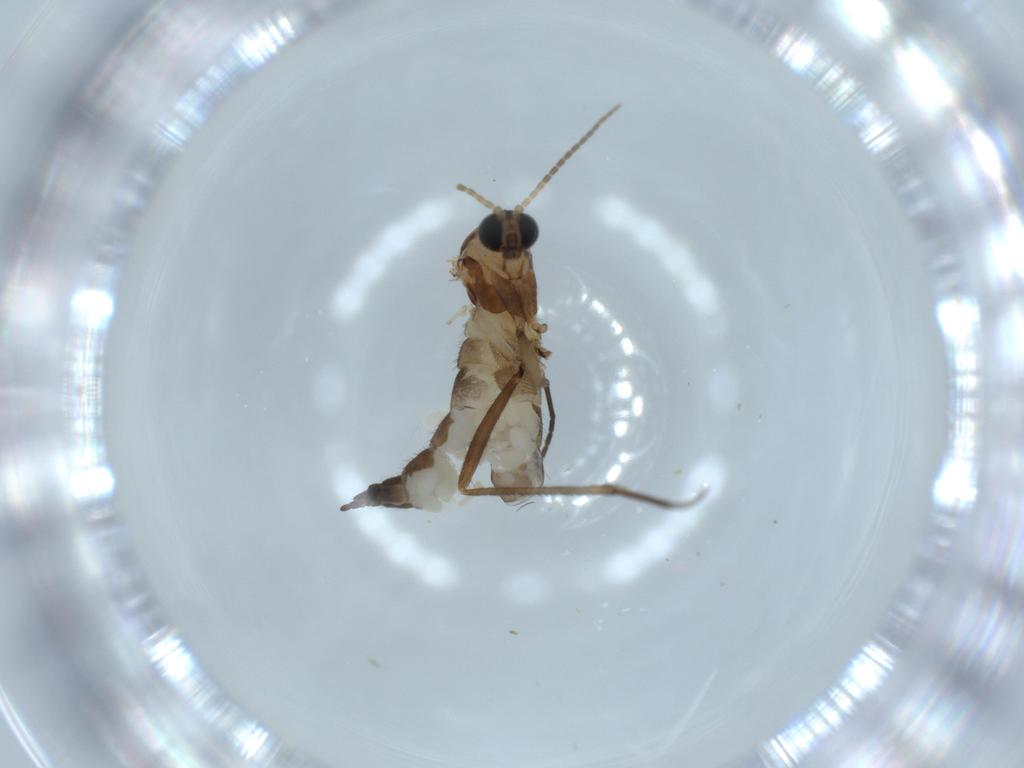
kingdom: Animalia
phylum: Arthropoda
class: Insecta
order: Diptera
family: Sciaridae
